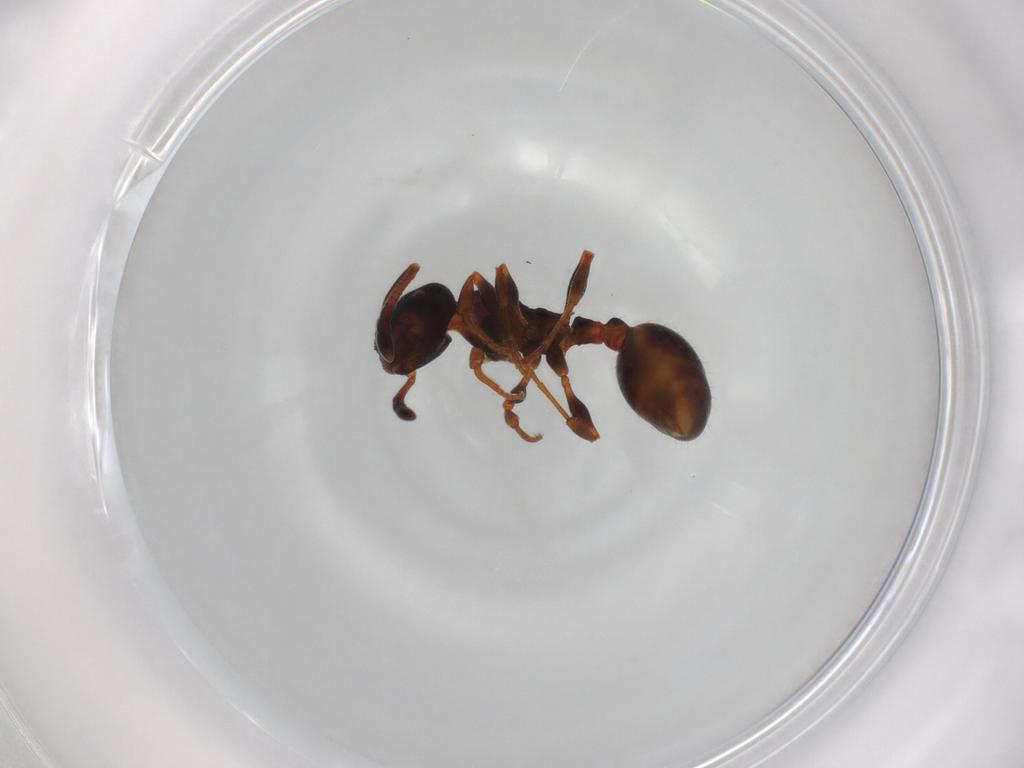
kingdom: Animalia
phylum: Arthropoda
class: Insecta
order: Hymenoptera
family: Formicidae
